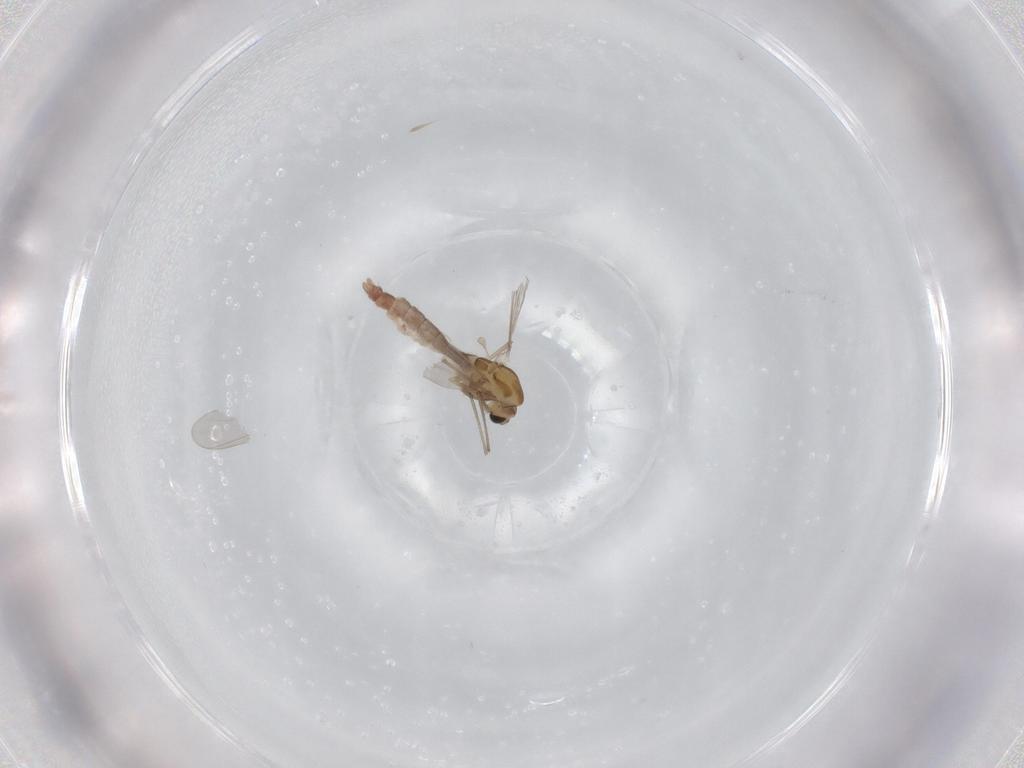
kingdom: Animalia
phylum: Arthropoda
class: Insecta
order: Diptera
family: Chironomidae
